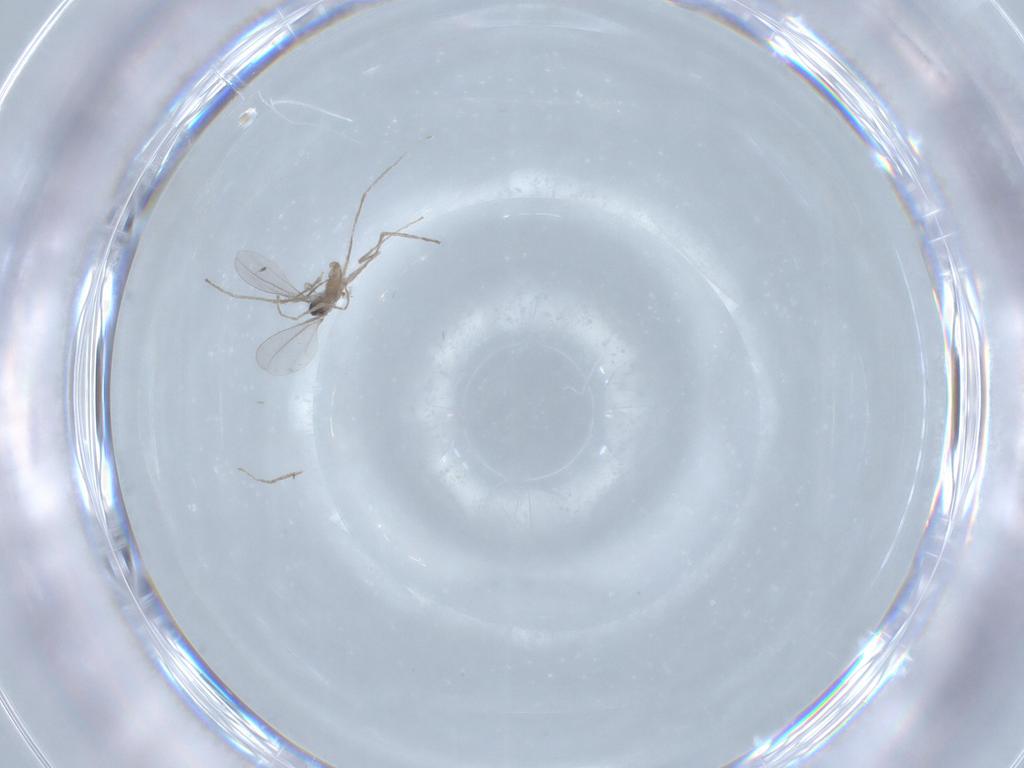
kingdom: Animalia
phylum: Arthropoda
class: Insecta
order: Diptera
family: Cecidomyiidae
